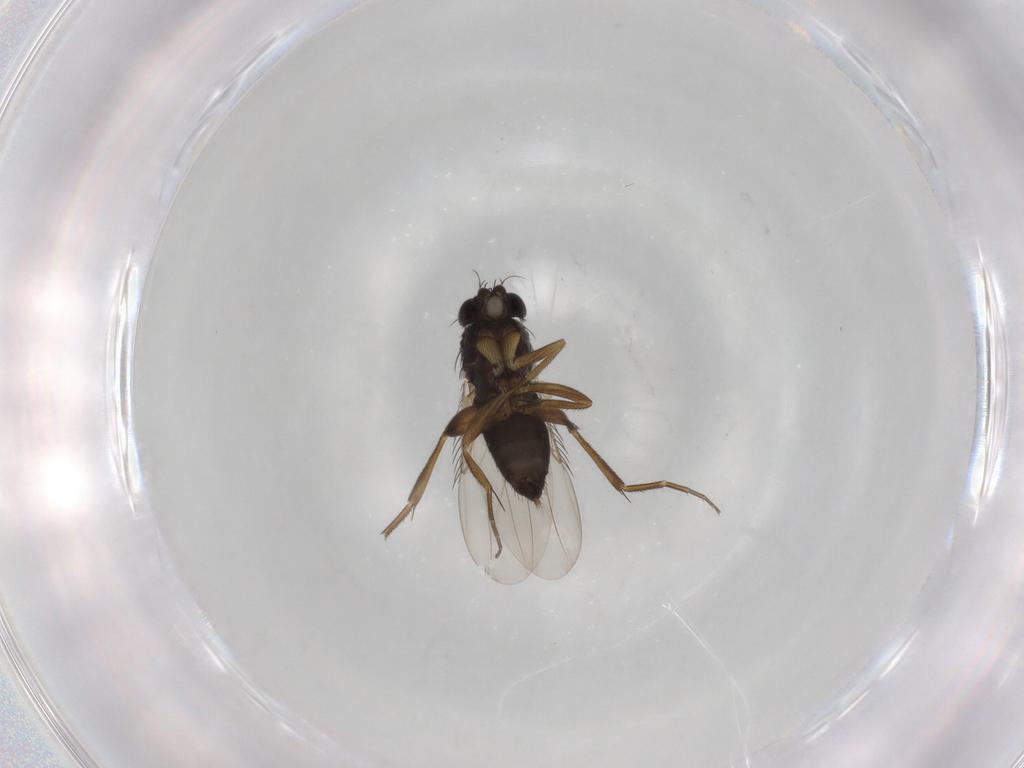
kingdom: Animalia
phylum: Arthropoda
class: Insecta
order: Diptera
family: Phoridae
